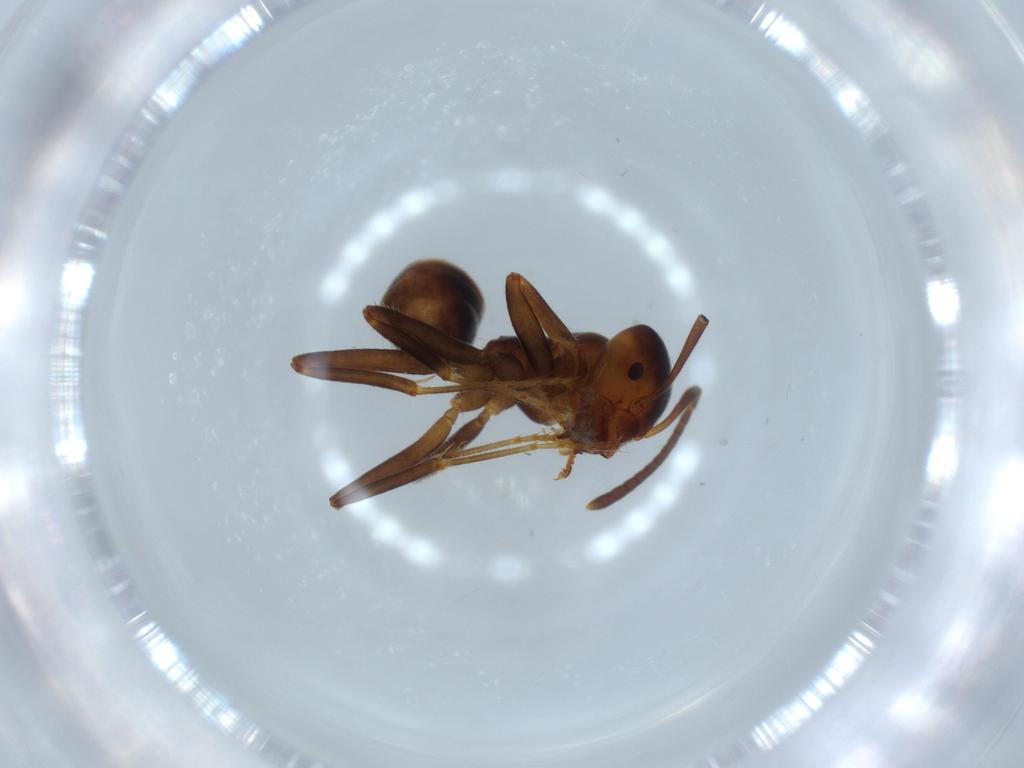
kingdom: Animalia
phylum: Arthropoda
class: Insecta
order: Hymenoptera
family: Formicidae
